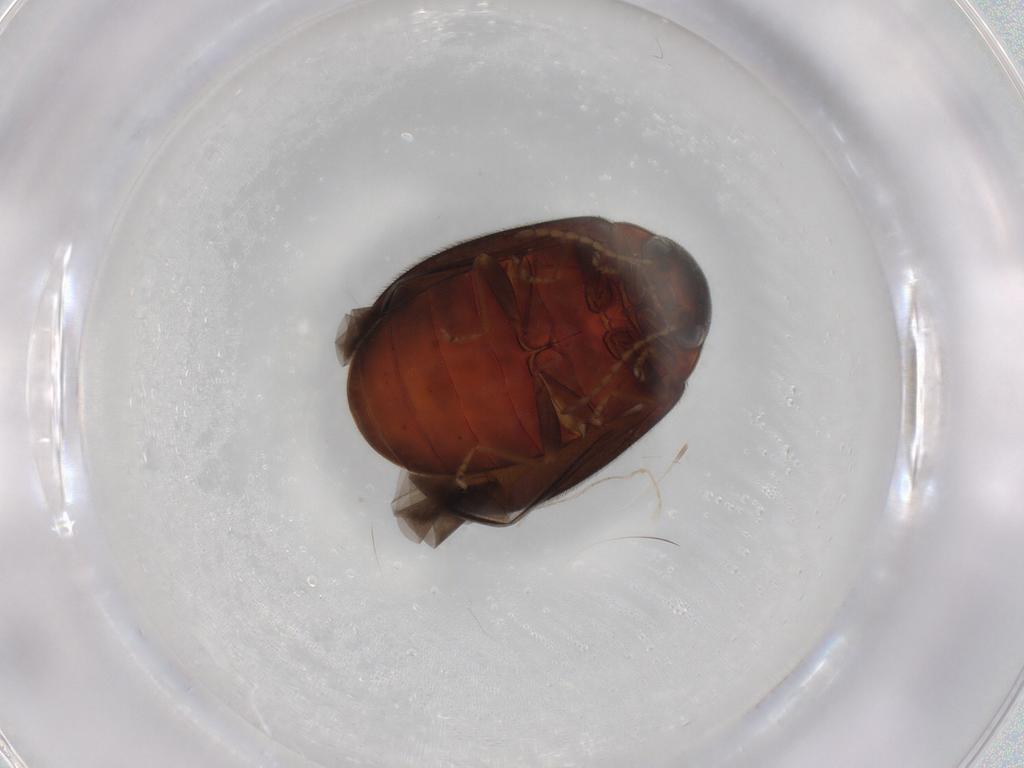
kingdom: Animalia
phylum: Arthropoda
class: Insecta
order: Coleoptera
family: Scirtidae
